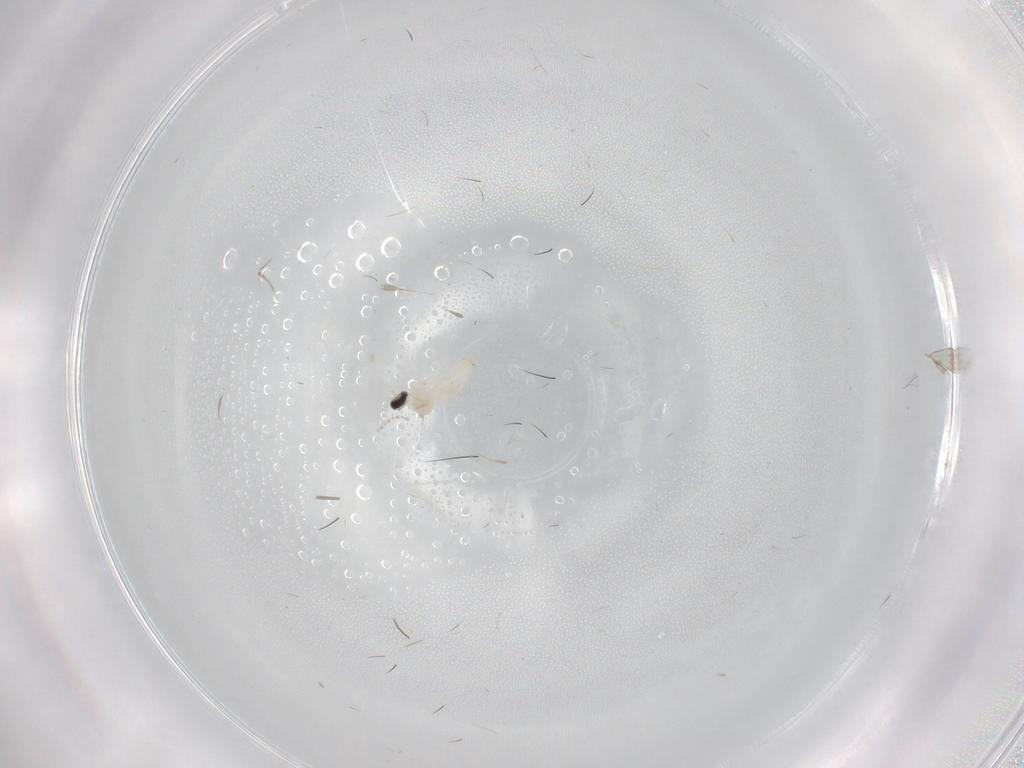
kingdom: Animalia
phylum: Arthropoda
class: Insecta
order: Diptera
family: Cecidomyiidae
